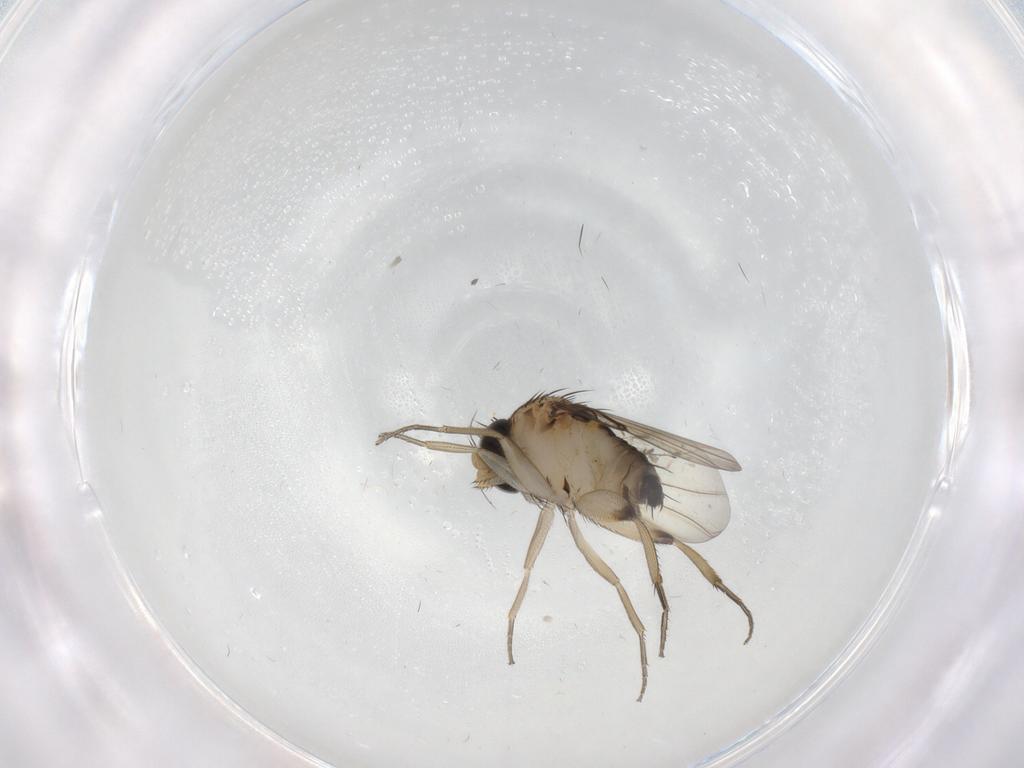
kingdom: Animalia
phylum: Arthropoda
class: Insecta
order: Diptera
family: Phoridae
